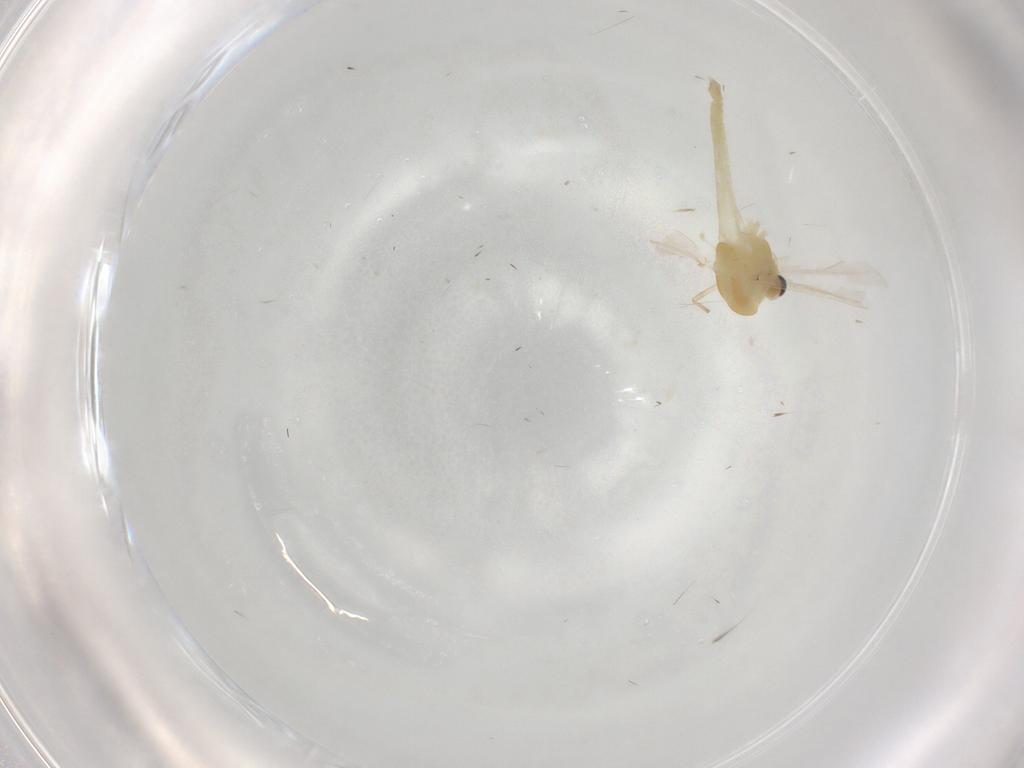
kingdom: Animalia
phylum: Arthropoda
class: Insecta
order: Diptera
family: Chironomidae
